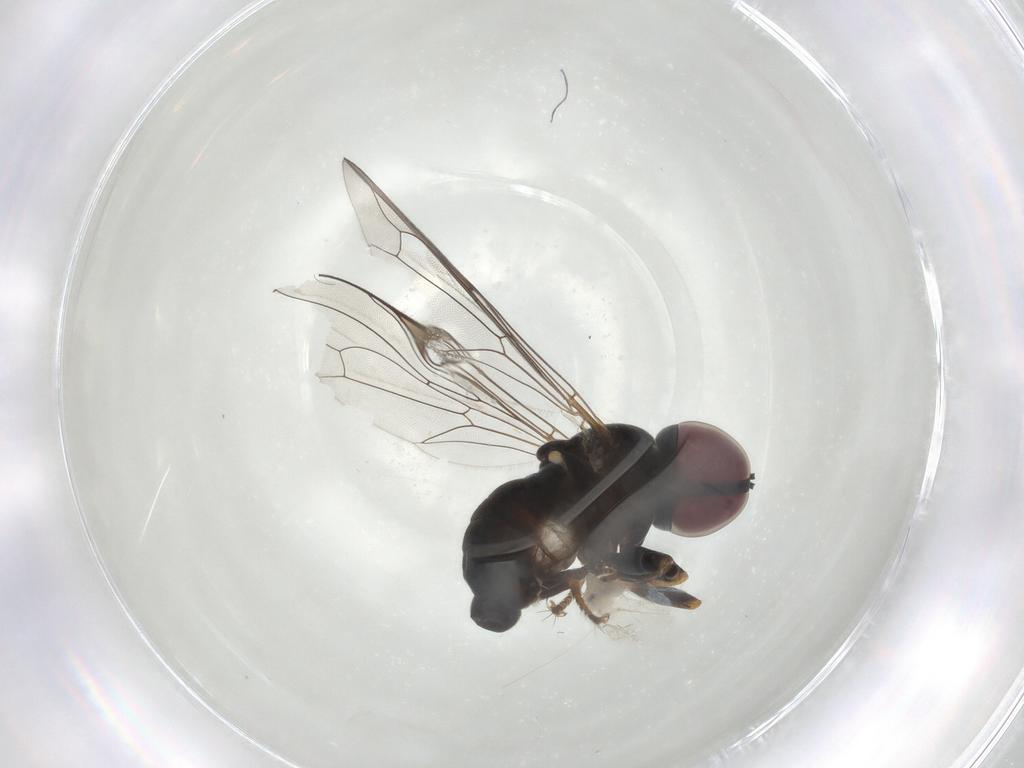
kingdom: Animalia
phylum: Arthropoda
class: Insecta
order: Diptera
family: Pipunculidae
